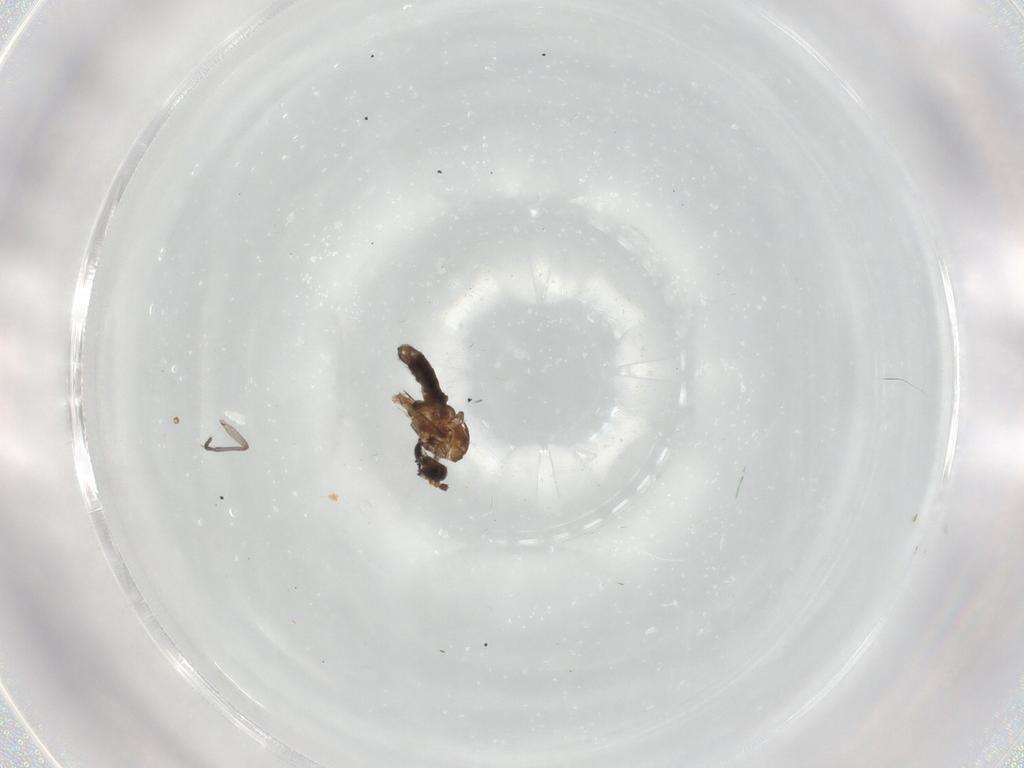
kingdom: Animalia
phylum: Arthropoda
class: Insecta
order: Diptera
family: Sciaridae
